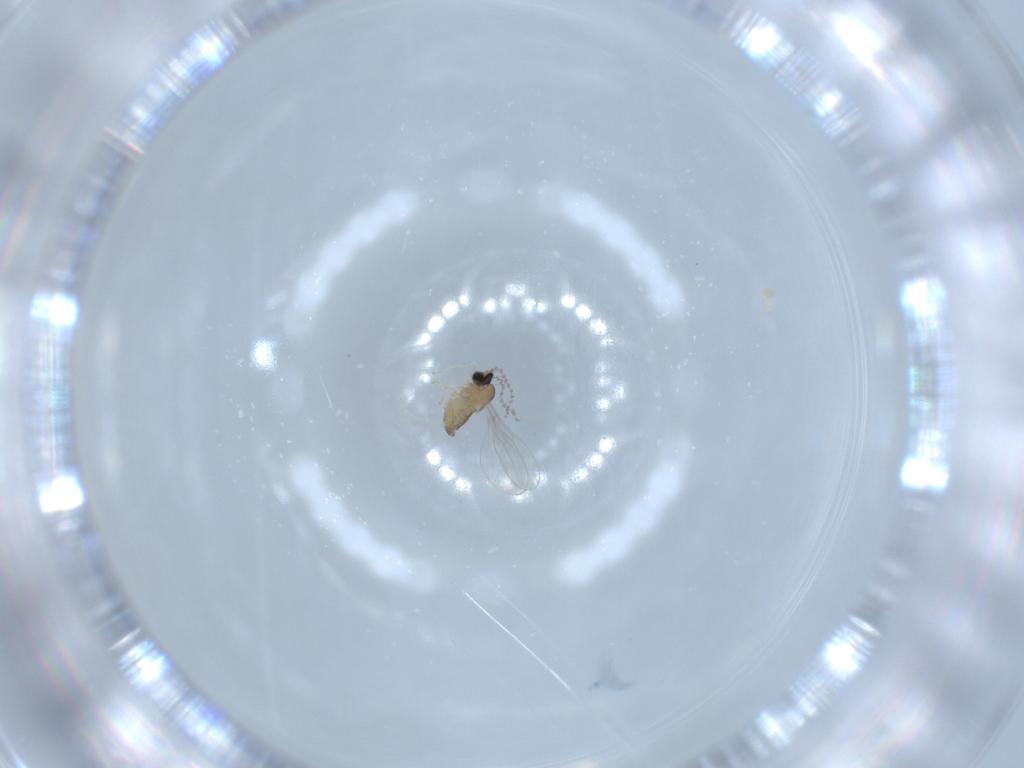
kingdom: Animalia
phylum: Arthropoda
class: Insecta
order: Diptera
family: Cecidomyiidae
